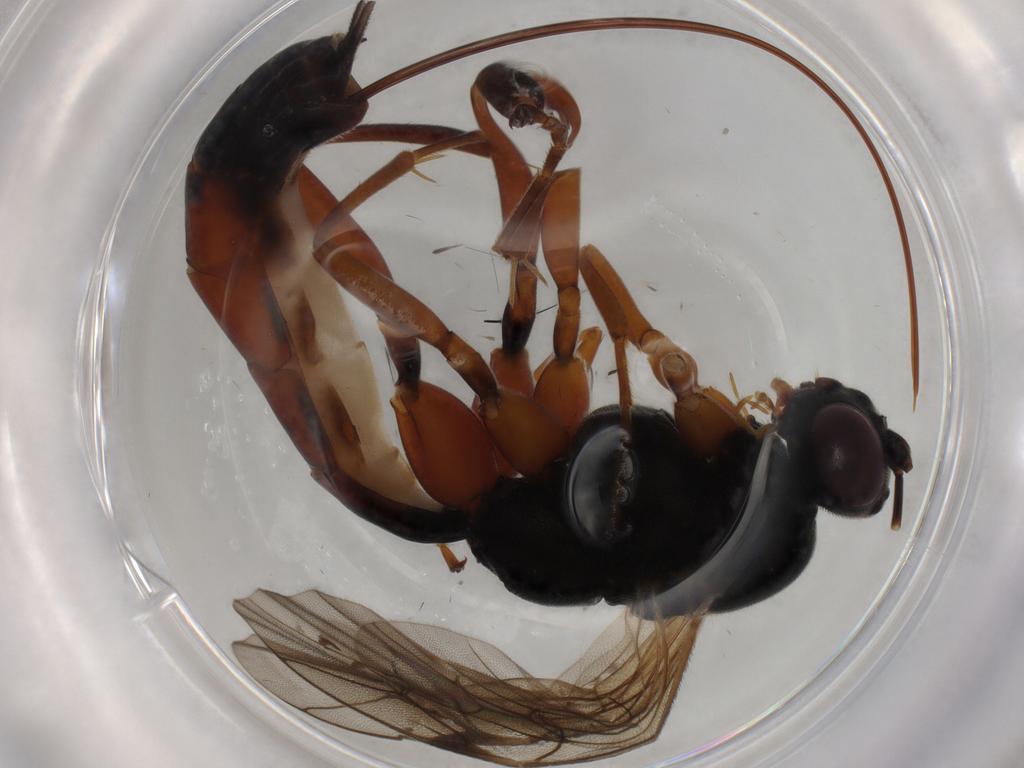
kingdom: Animalia
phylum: Arthropoda
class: Insecta
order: Hymenoptera
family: Ichneumonidae
